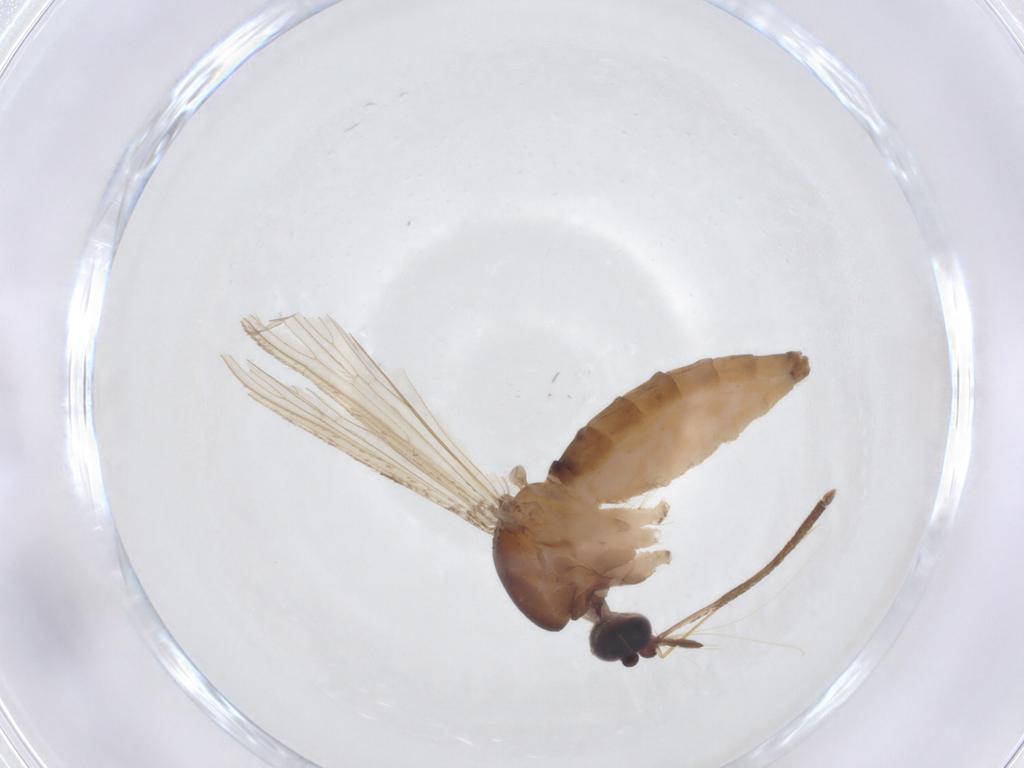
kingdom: Animalia
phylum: Arthropoda
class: Insecta
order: Diptera
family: Culicidae
